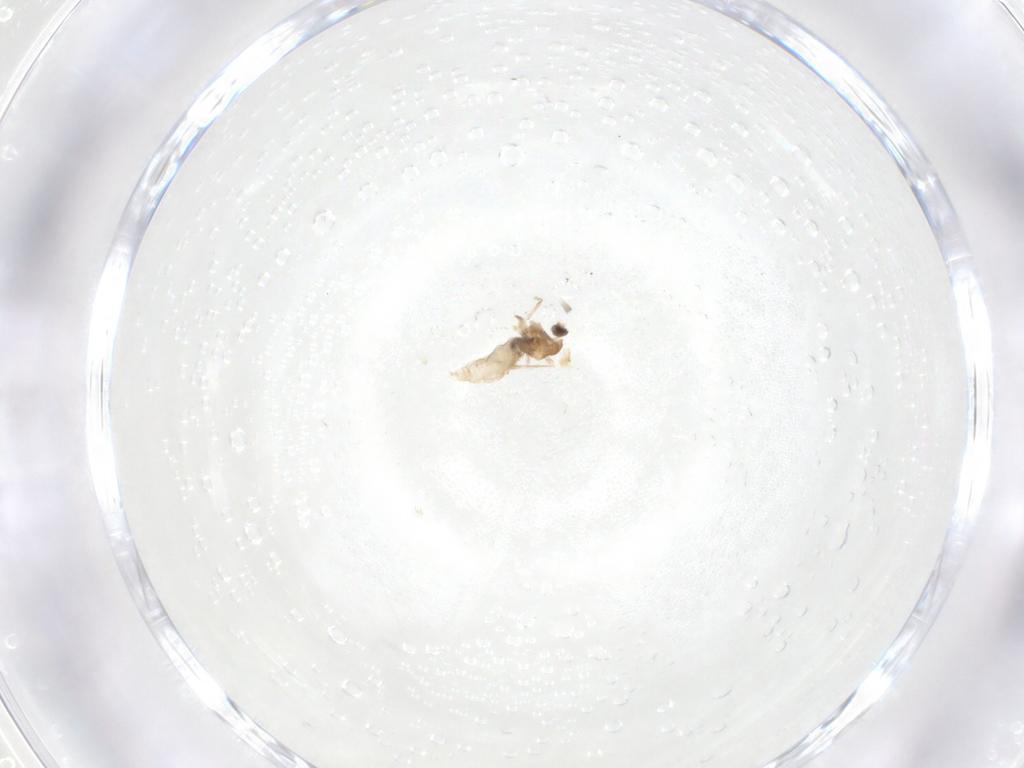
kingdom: Animalia
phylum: Arthropoda
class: Insecta
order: Diptera
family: Cecidomyiidae
